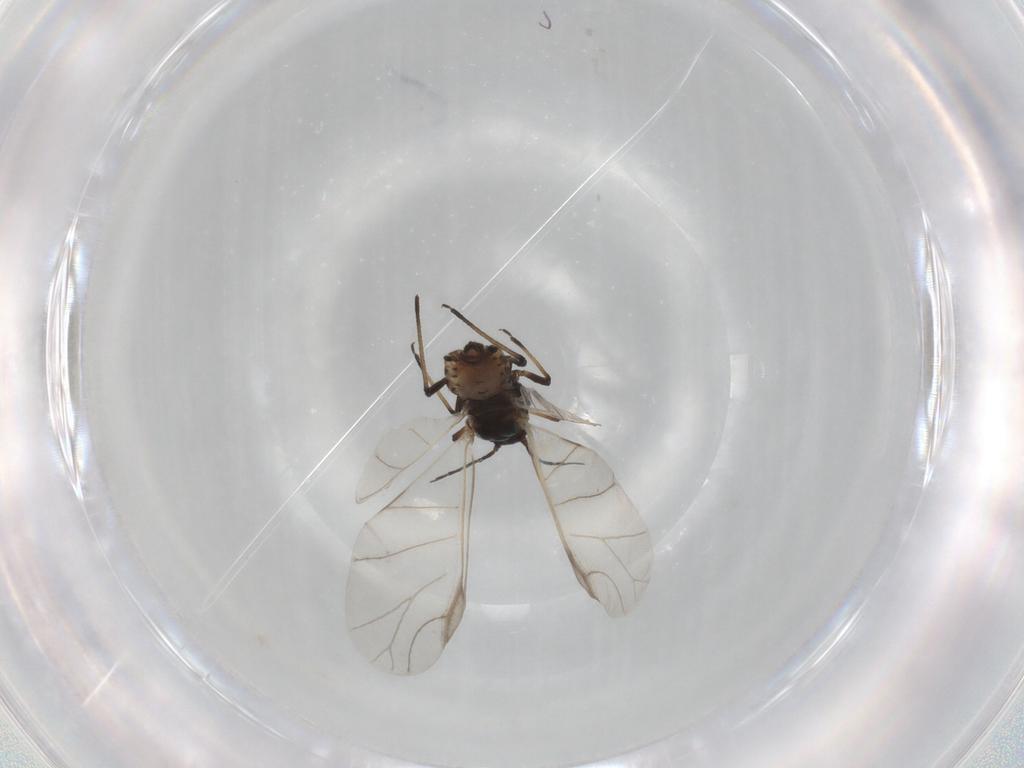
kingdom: Animalia
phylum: Arthropoda
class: Insecta
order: Hemiptera
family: Aphididae
